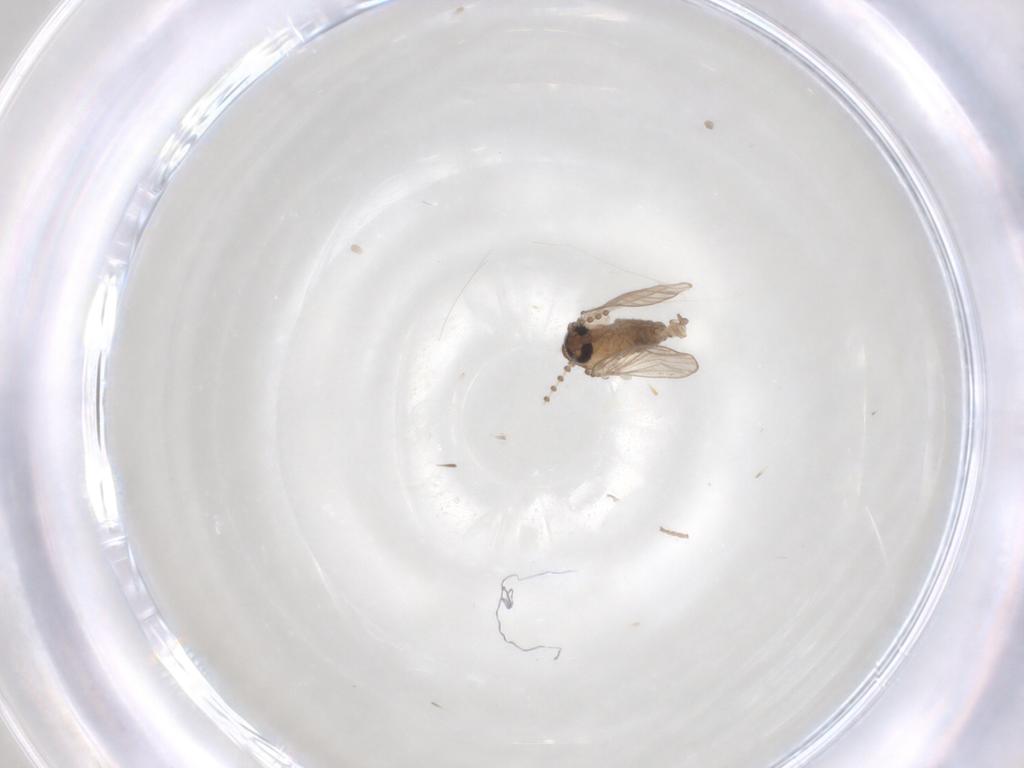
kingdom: Animalia
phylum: Arthropoda
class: Insecta
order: Diptera
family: Psychodidae
